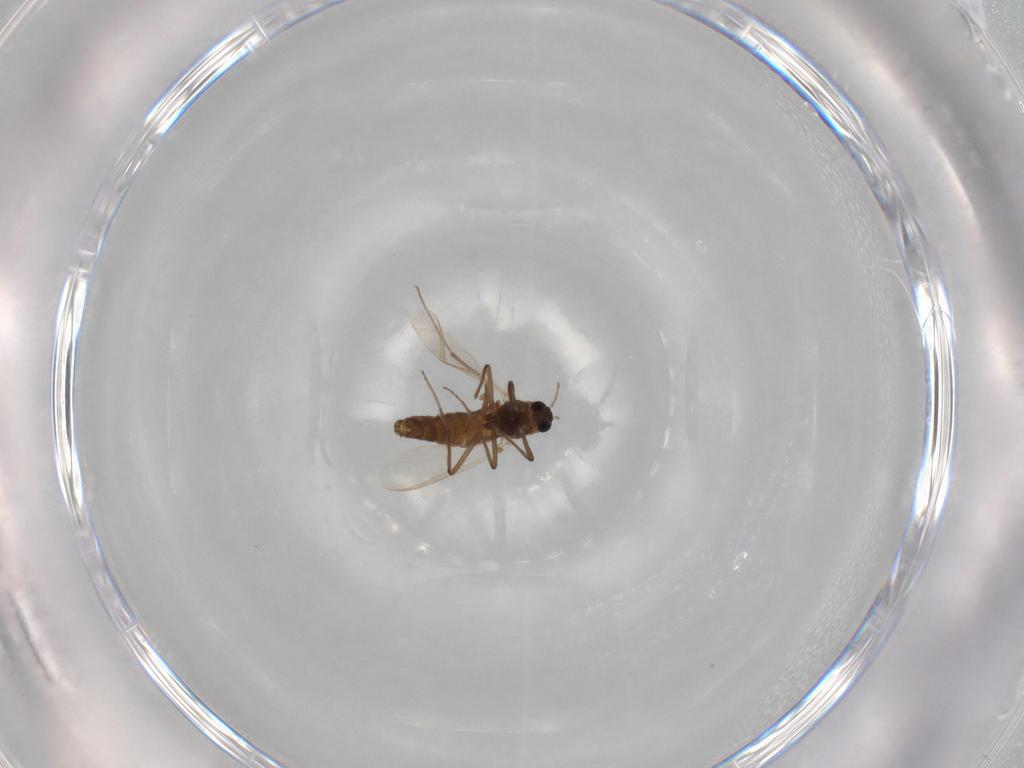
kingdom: Animalia
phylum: Arthropoda
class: Insecta
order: Diptera
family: Chironomidae
